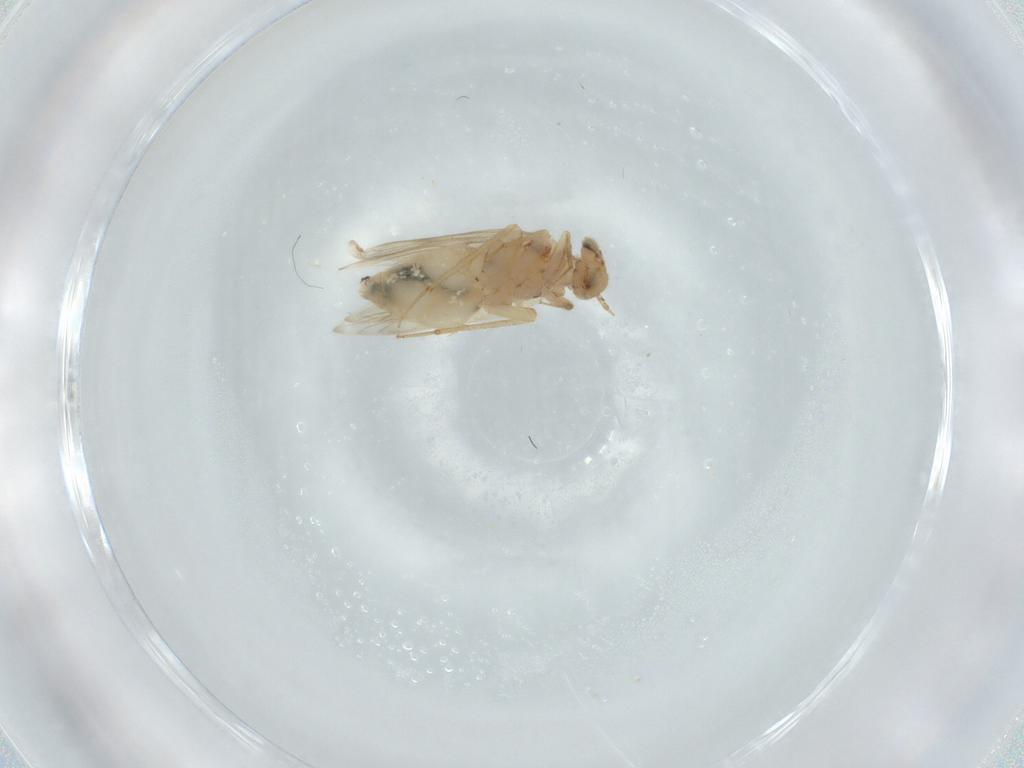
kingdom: Animalia
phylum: Arthropoda
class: Insecta
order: Psocodea
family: Lepidopsocidae
